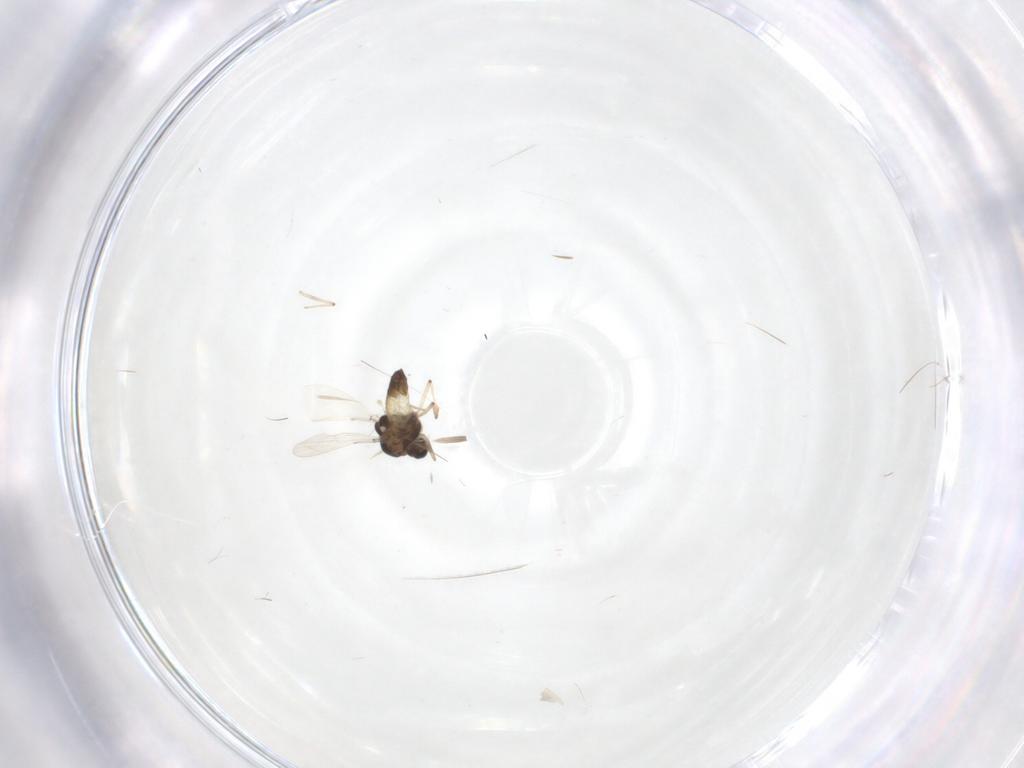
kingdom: Animalia
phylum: Arthropoda
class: Insecta
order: Diptera
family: Chironomidae
